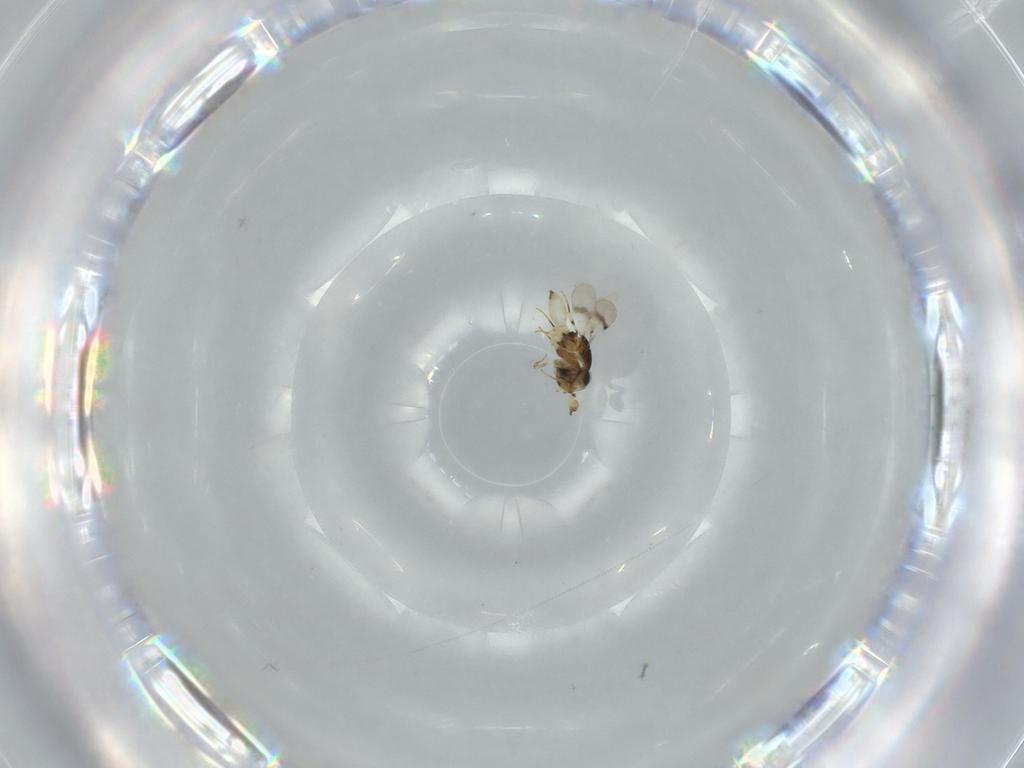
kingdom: Animalia
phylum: Arthropoda
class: Insecta
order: Hymenoptera
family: Scelionidae
